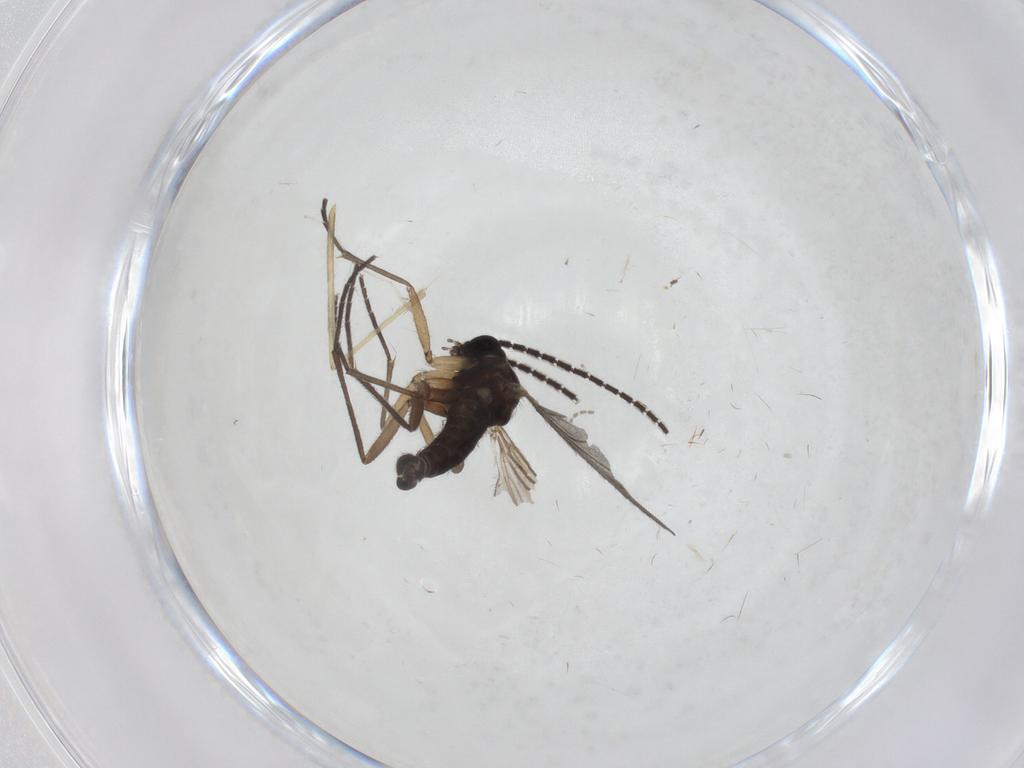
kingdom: Animalia
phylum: Arthropoda
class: Insecta
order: Diptera
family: Sciaridae
